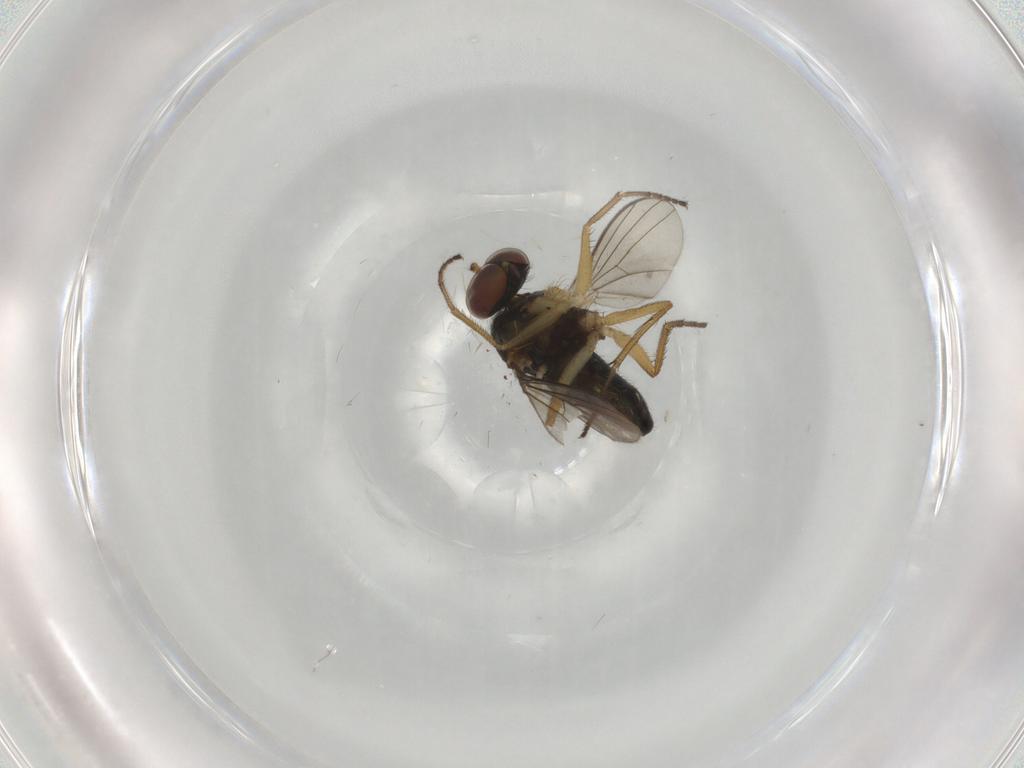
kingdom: Animalia
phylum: Arthropoda
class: Insecta
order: Diptera
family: Dolichopodidae
